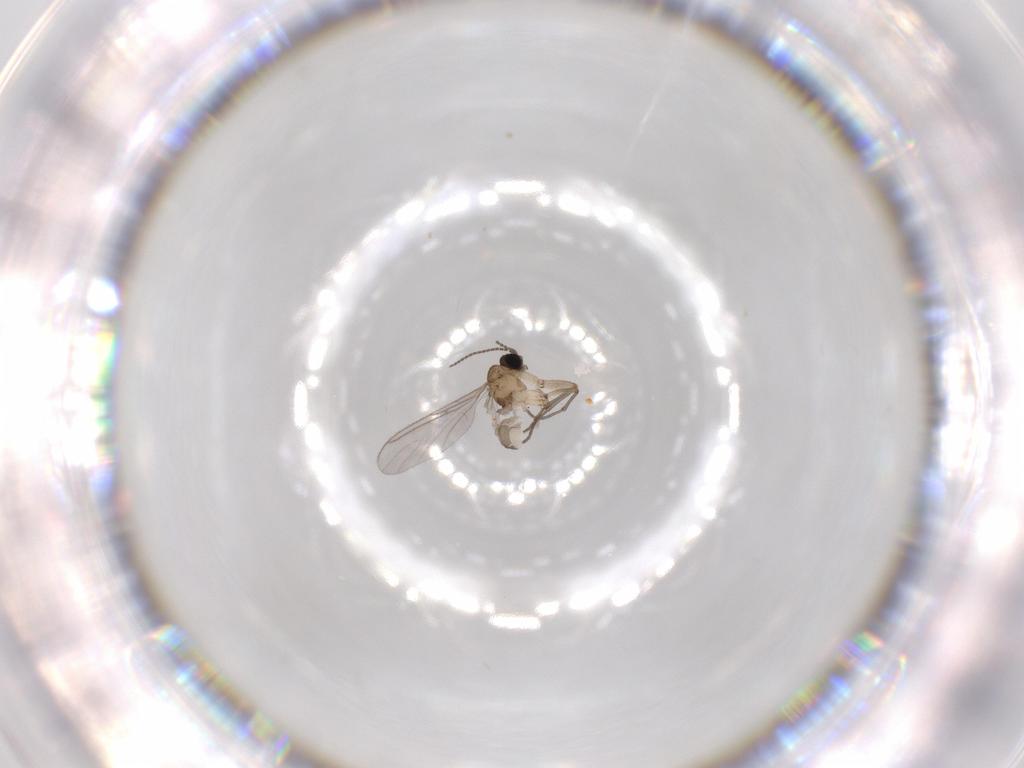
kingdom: Animalia
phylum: Arthropoda
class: Insecta
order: Diptera
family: Sciaridae
